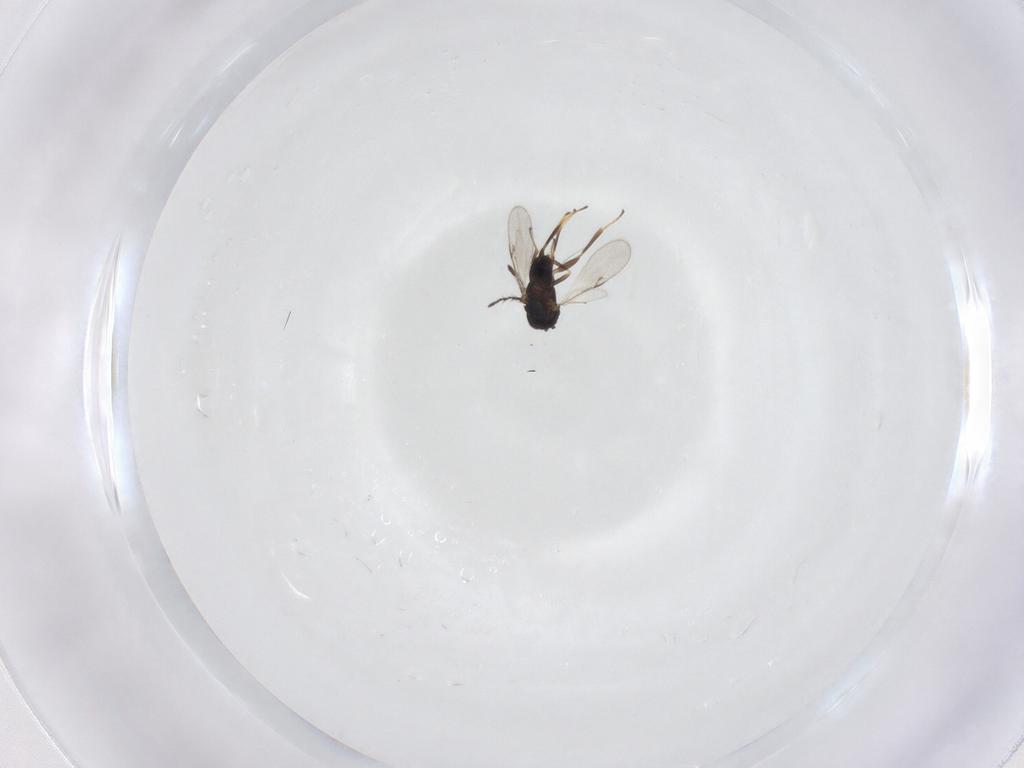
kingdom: Animalia
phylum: Arthropoda
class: Insecta
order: Hymenoptera
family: Encyrtidae
